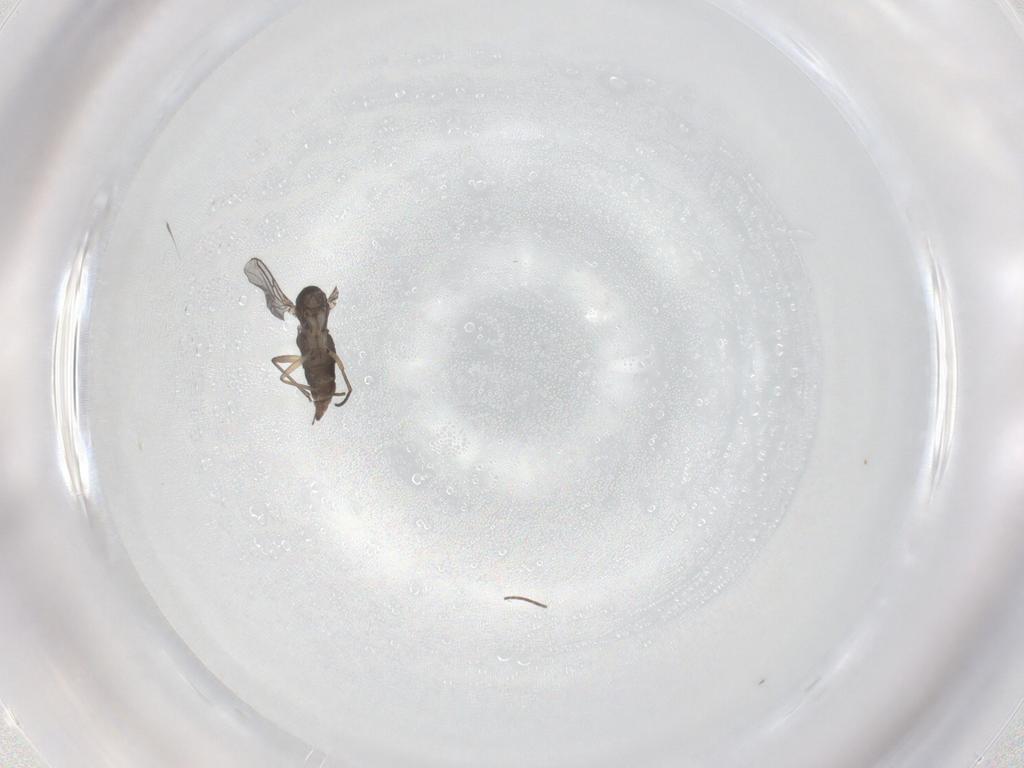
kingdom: Animalia
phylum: Arthropoda
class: Insecta
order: Diptera
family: Sciaridae
